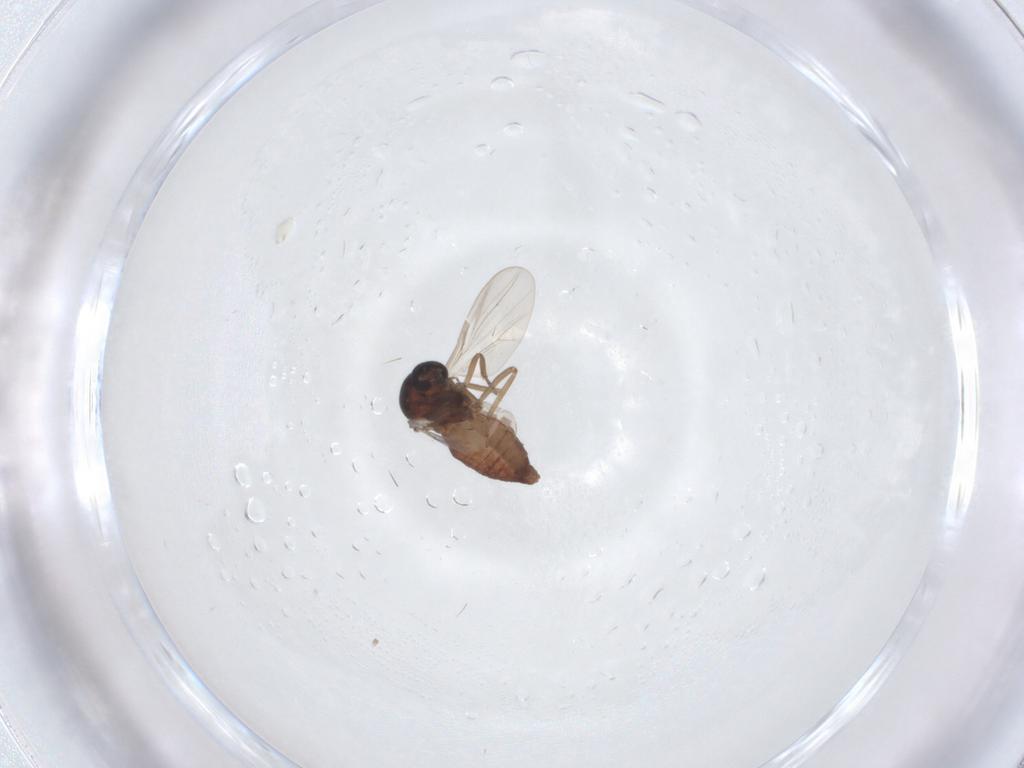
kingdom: Animalia
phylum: Arthropoda
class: Insecta
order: Diptera
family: Ceratopogonidae
